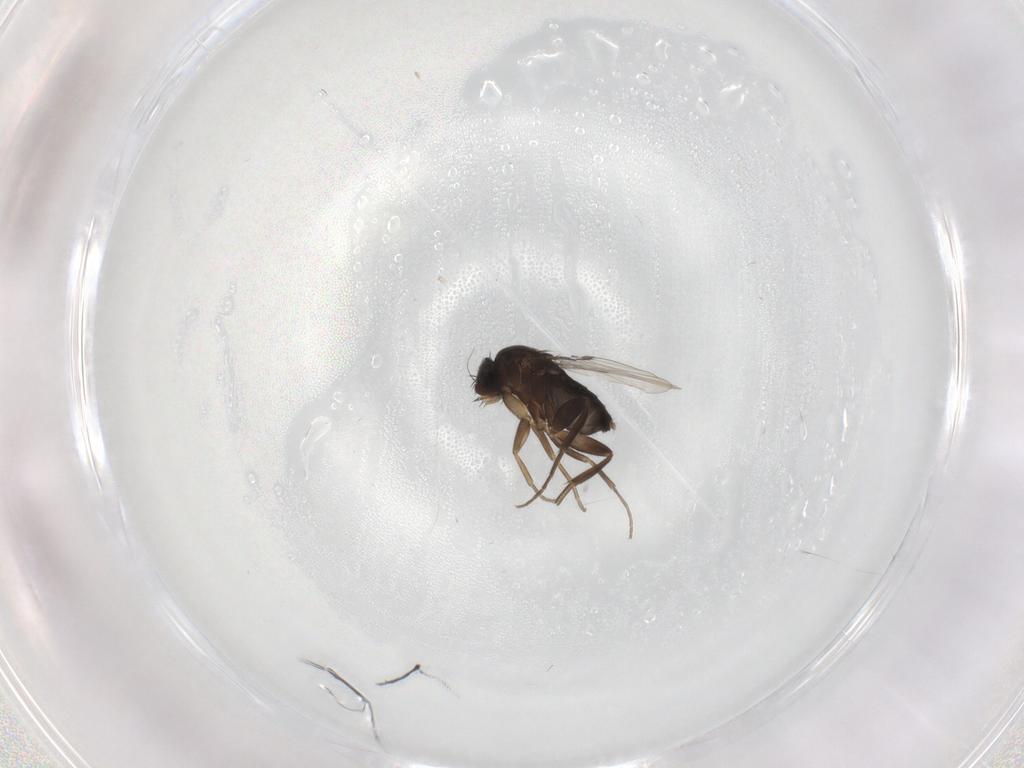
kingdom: Animalia
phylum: Arthropoda
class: Insecta
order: Diptera
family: Phoridae
